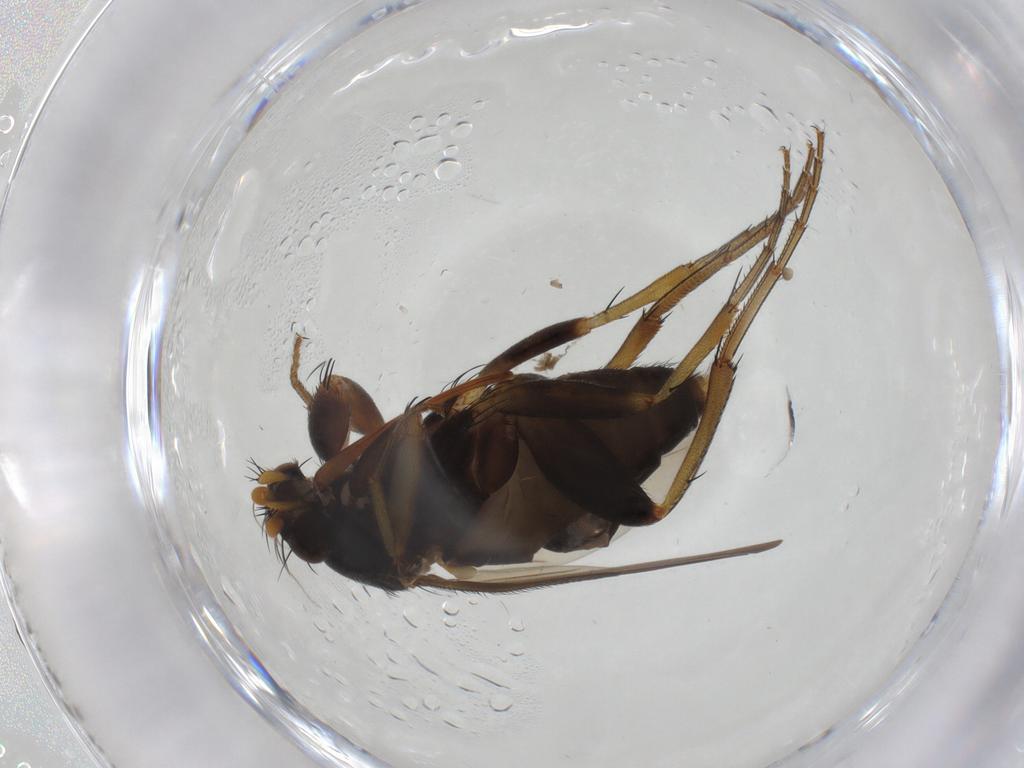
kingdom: Animalia
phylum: Arthropoda
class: Insecta
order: Diptera
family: Phoridae
